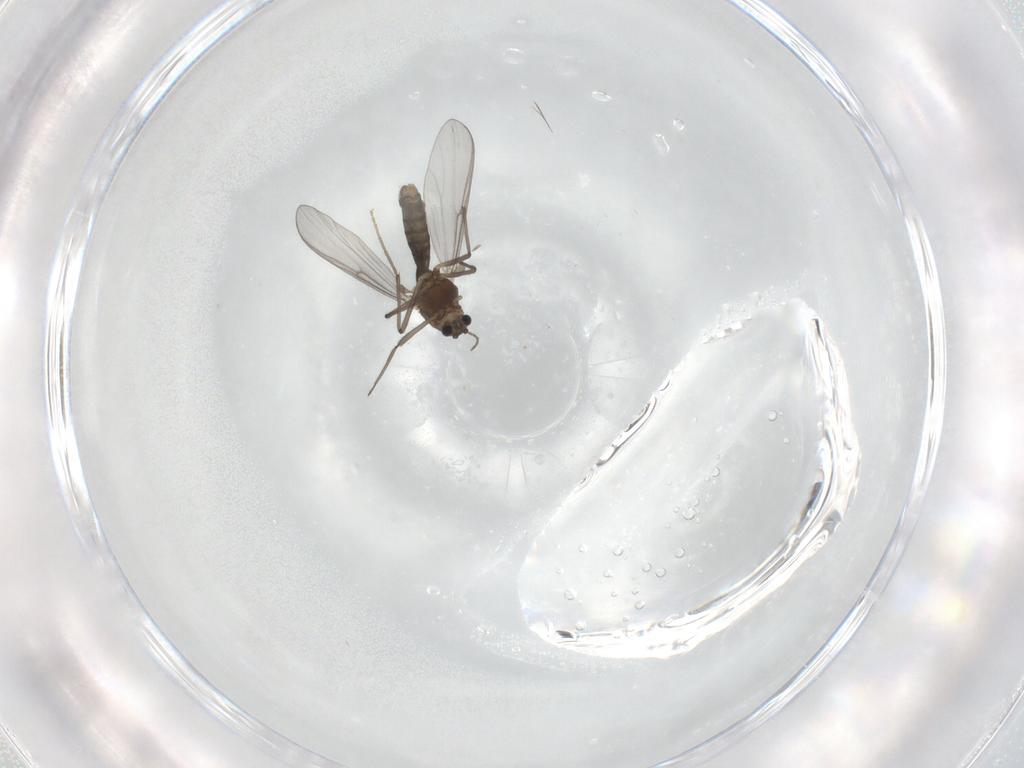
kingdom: Animalia
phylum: Arthropoda
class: Insecta
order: Diptera
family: Chironomidae
